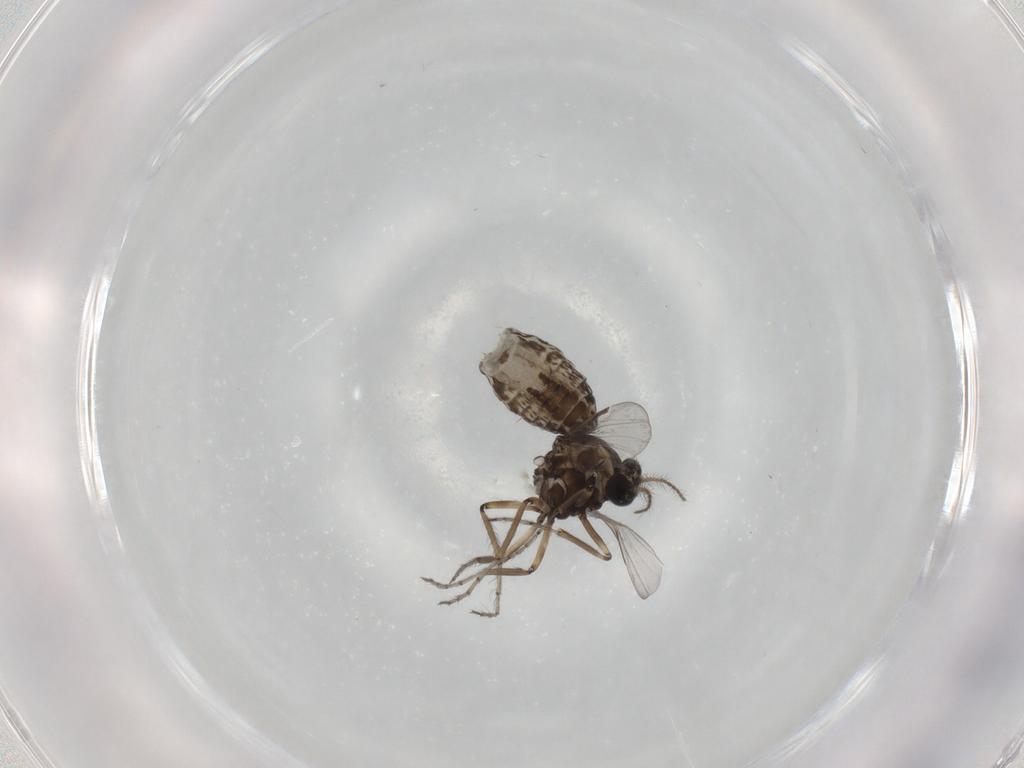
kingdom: Animalia
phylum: Arthropoda
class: Insecta
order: Diptera
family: Ceratopogonidae
